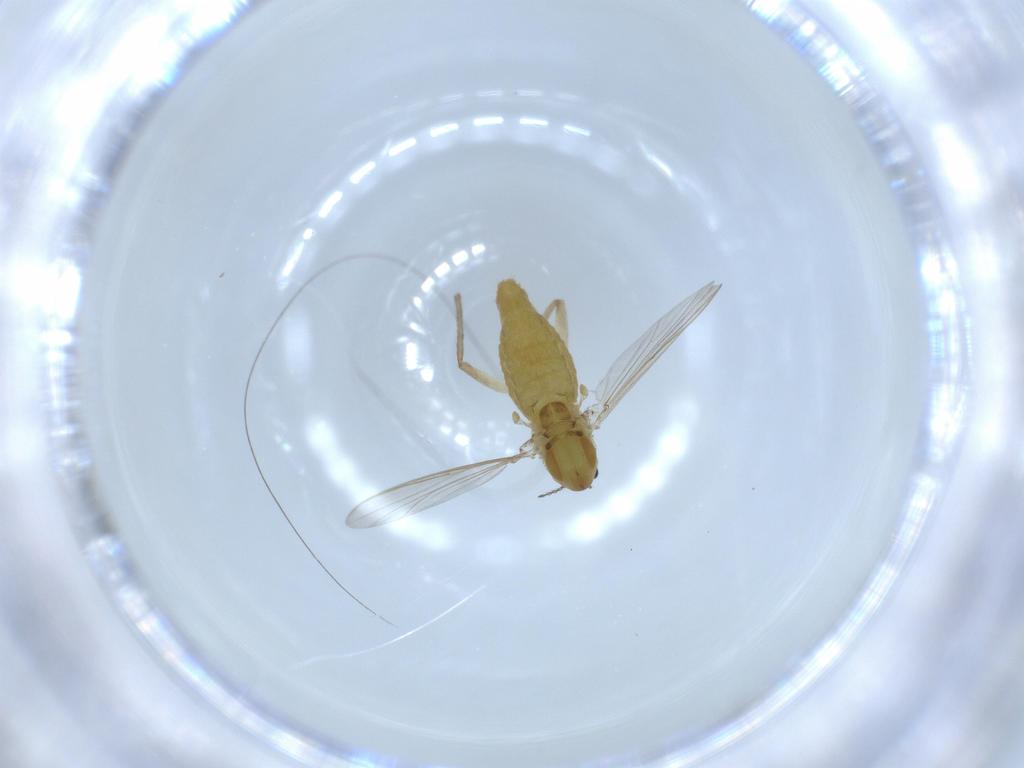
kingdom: Animalia
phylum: Arthropoda
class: Insecta
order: Diptera
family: Chironomidae
